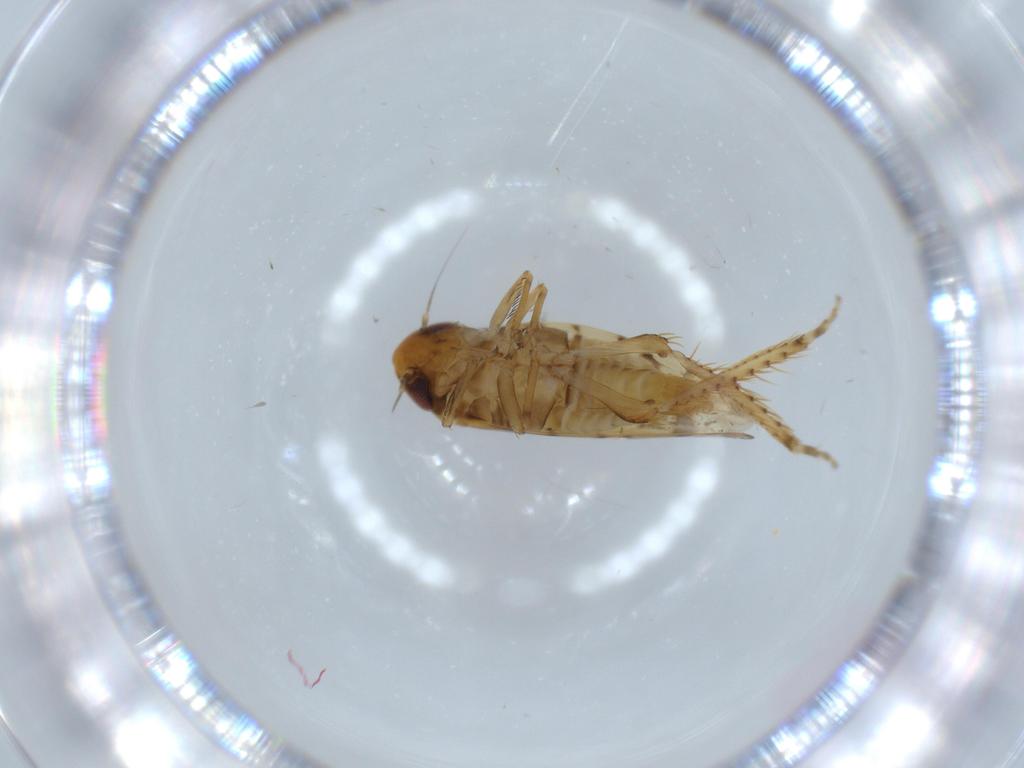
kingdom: Animalia
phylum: Arthropoda
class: Insecta
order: Hemiptera
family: Cicadellidae
